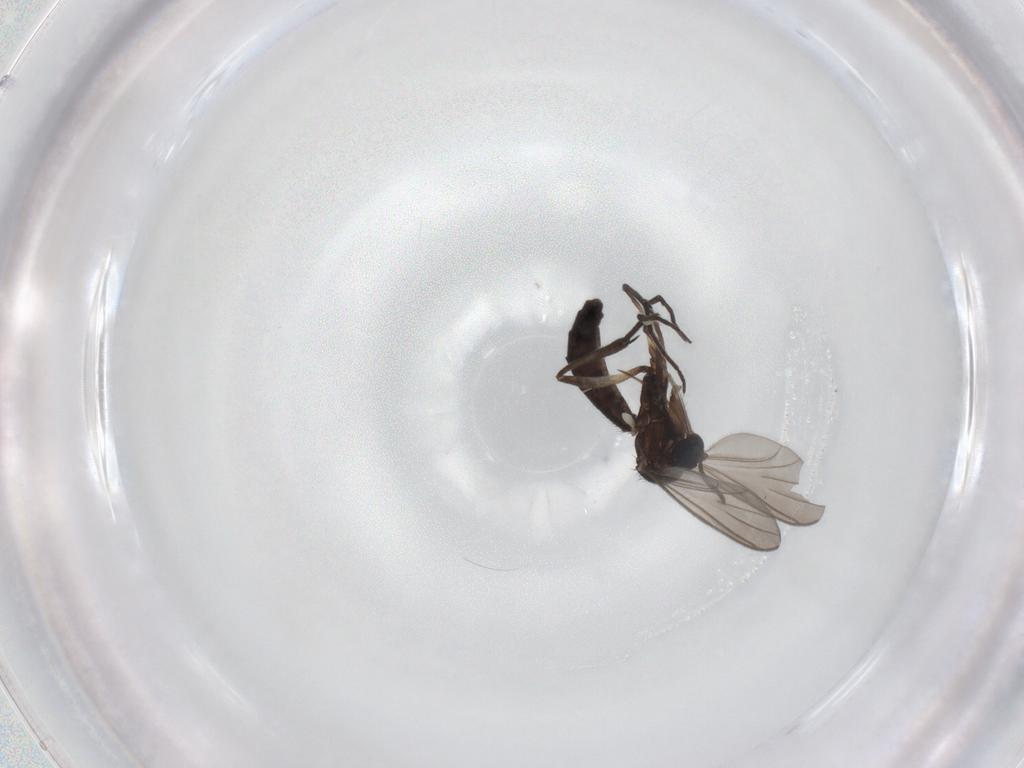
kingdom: Animalia
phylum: Arthropoda
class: Insecta
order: Diptera
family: Keroplatidae
